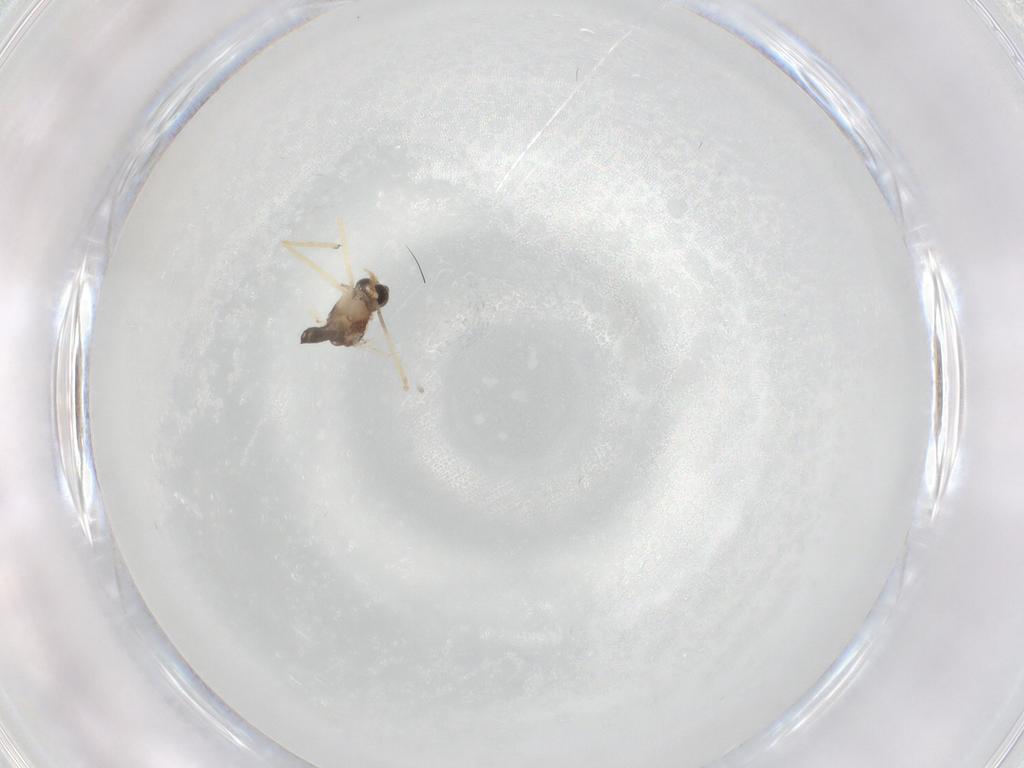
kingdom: Animalia
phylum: Arthropoda
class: Insecta
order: Diptera
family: Chironomidae
